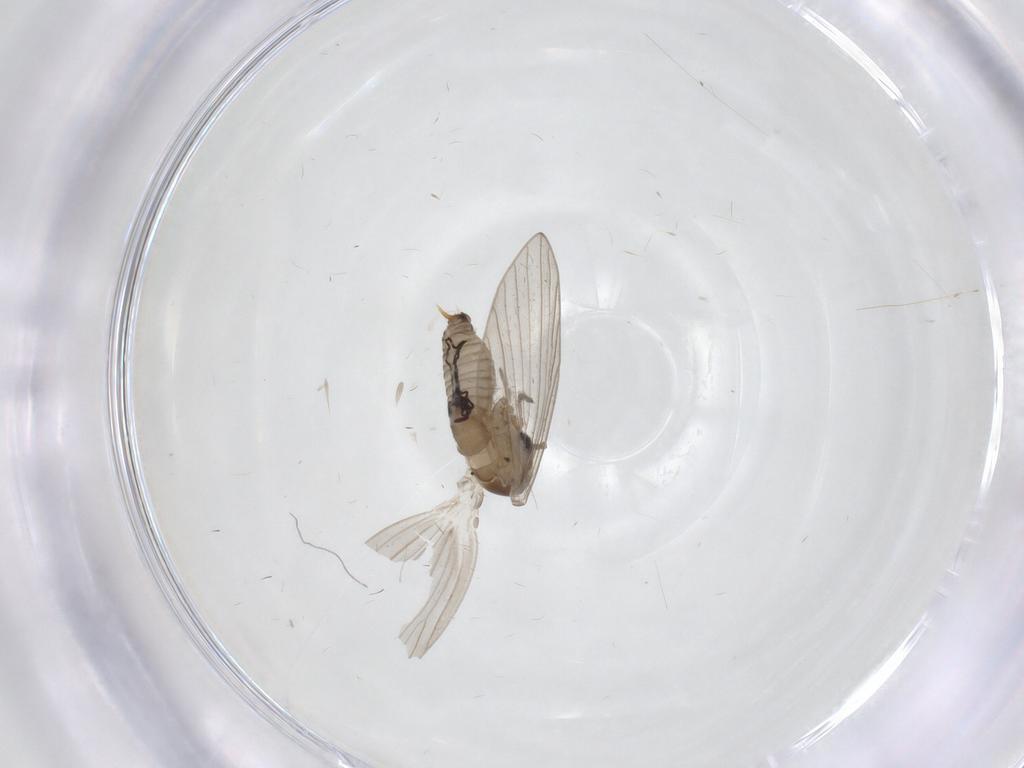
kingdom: Animalia
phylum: Arthropoda
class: Insecta
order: Diptera
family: Psychodidae
